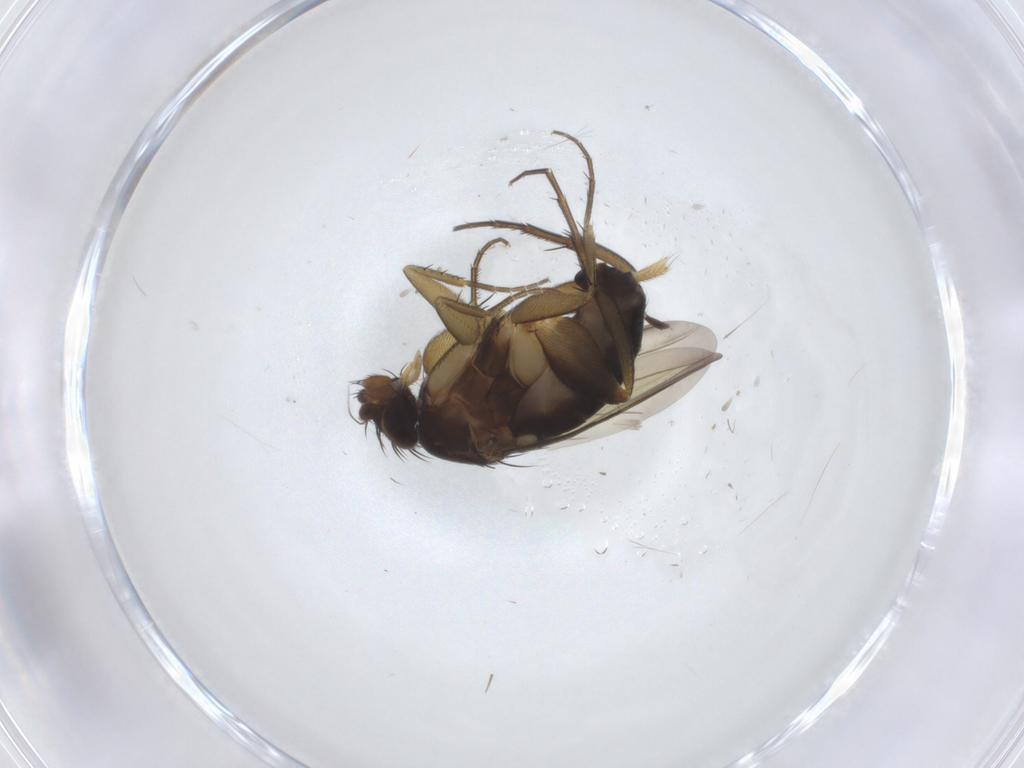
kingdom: Animalia
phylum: Arthropoda
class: Insecta
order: Diptera
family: Phoridae
